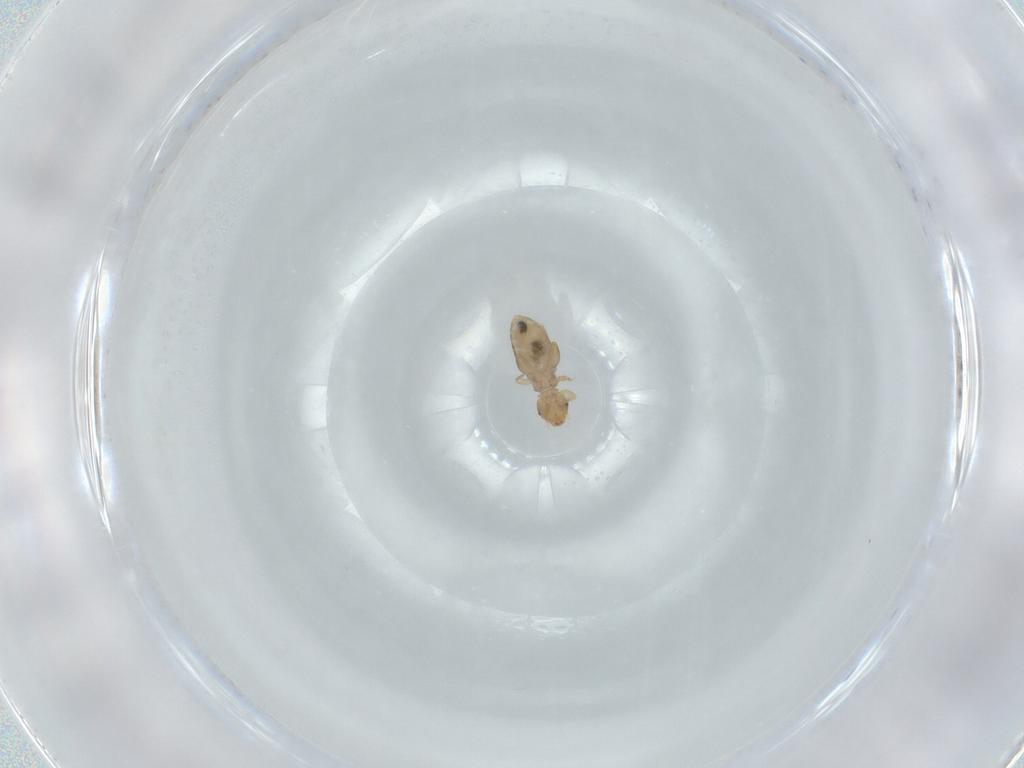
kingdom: Animalia
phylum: Arthropoda
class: Insecta
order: Psocodea
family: Liposcelididae
